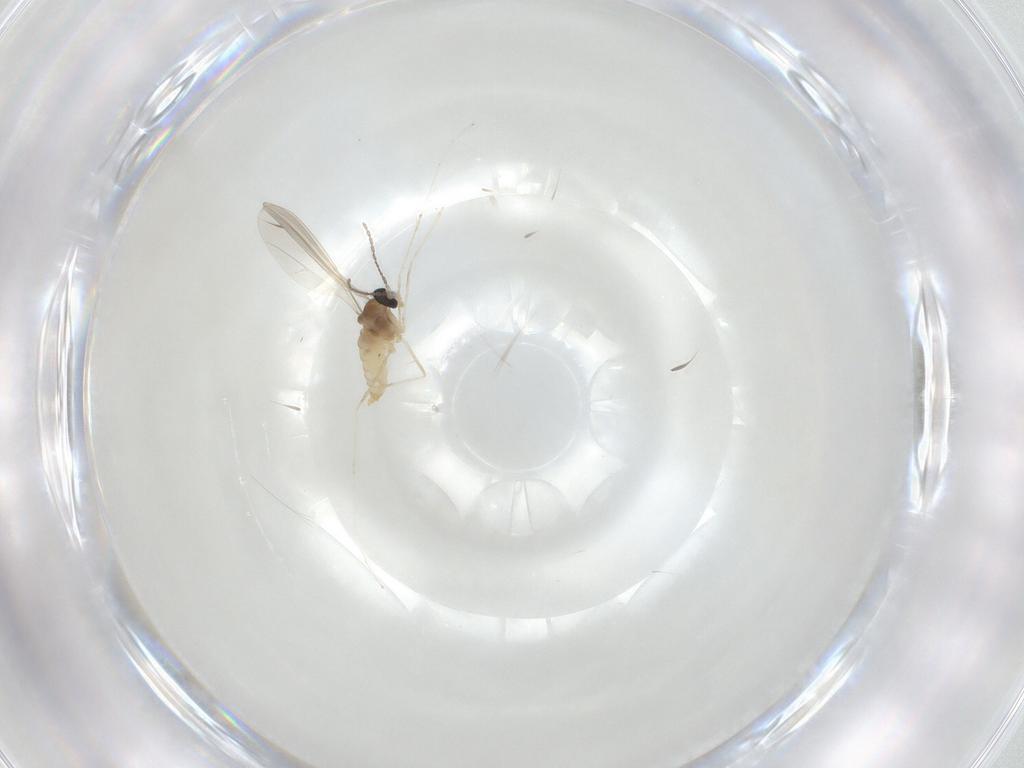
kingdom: Animalia
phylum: Arthropoda
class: Insecta
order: Diptera
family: Cecidomyiidae
